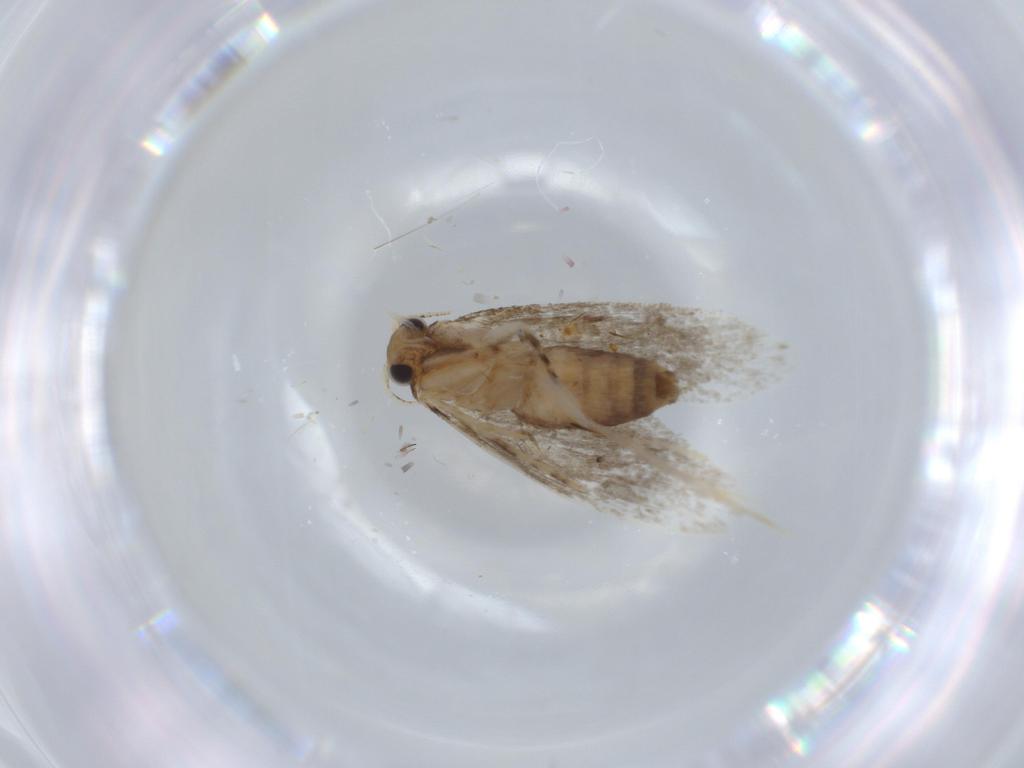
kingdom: Animalia
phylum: Arthropoda
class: Insecta
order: Lepidoptera
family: Tineidae
